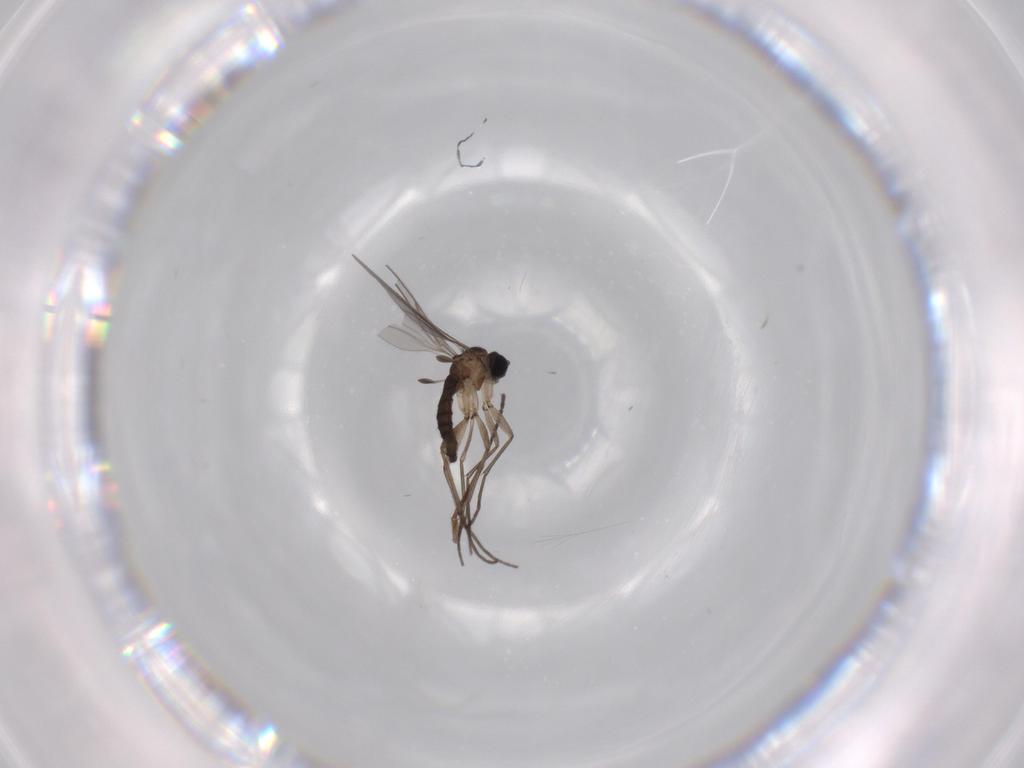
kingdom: Animalia
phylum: Arthropoda
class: Insecta
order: Diptera
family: Sciaridae
